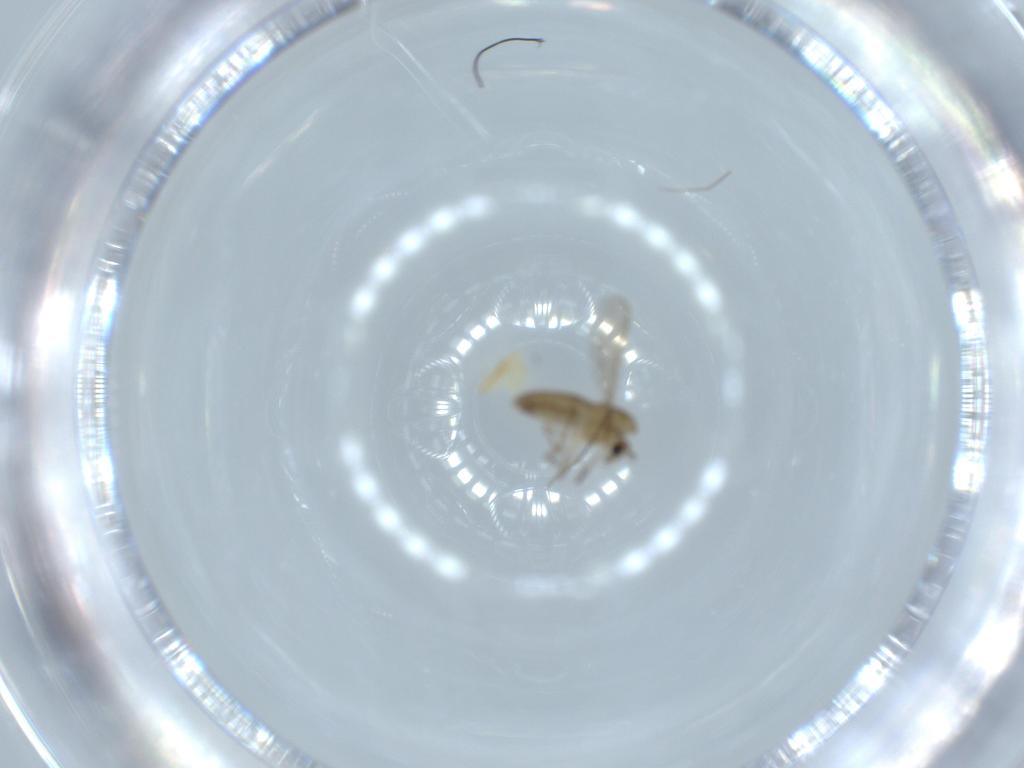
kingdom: Animalia
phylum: Arthropoda
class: Insecta
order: Diptera
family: Chironomidae
